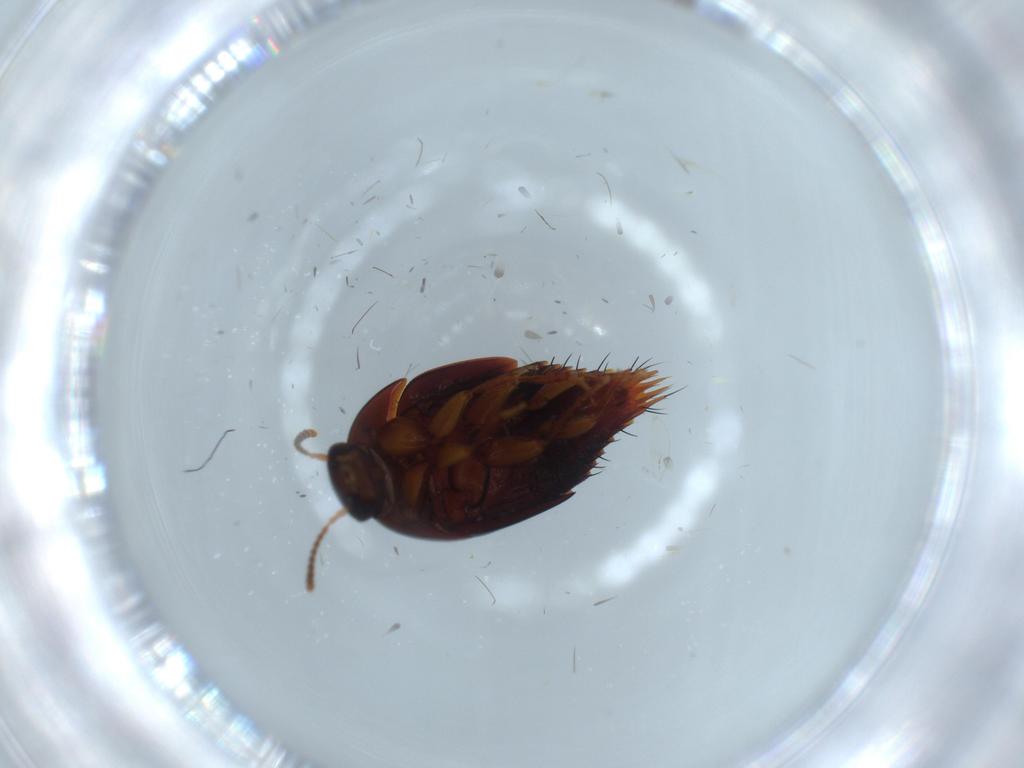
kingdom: Animalia
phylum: Arthropoda
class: Insecta
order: Coleoptera
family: Staphylinidae
